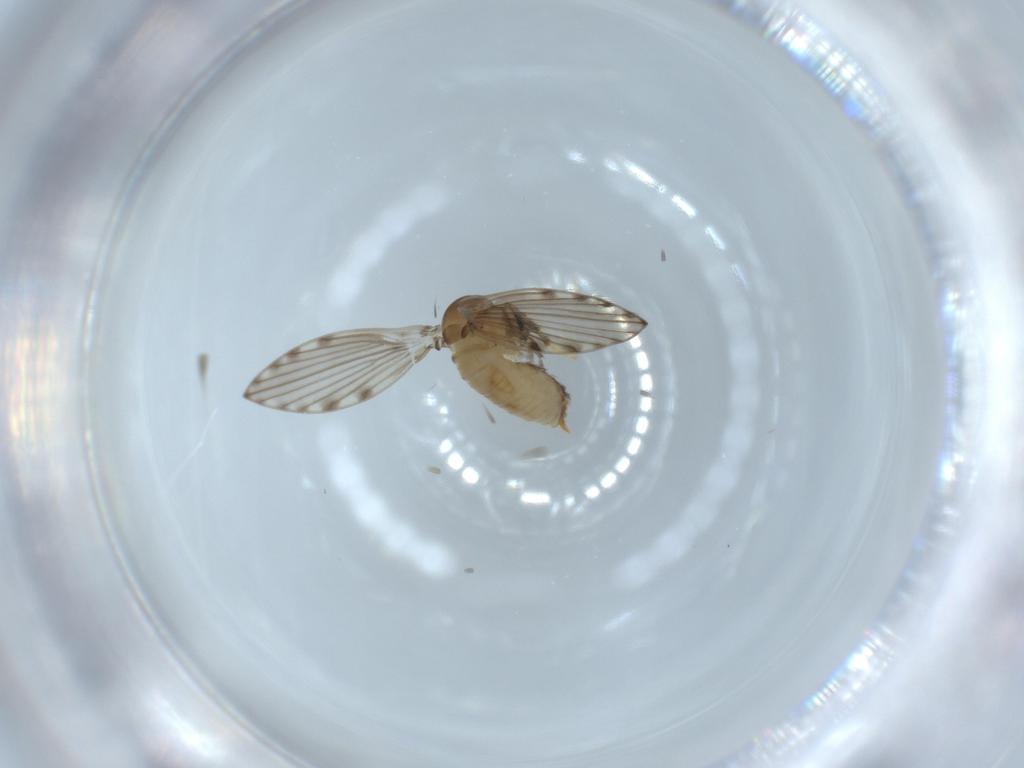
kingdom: Animalia
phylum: Arthropoda
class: Insecta
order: Diptera
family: Psychodidae
